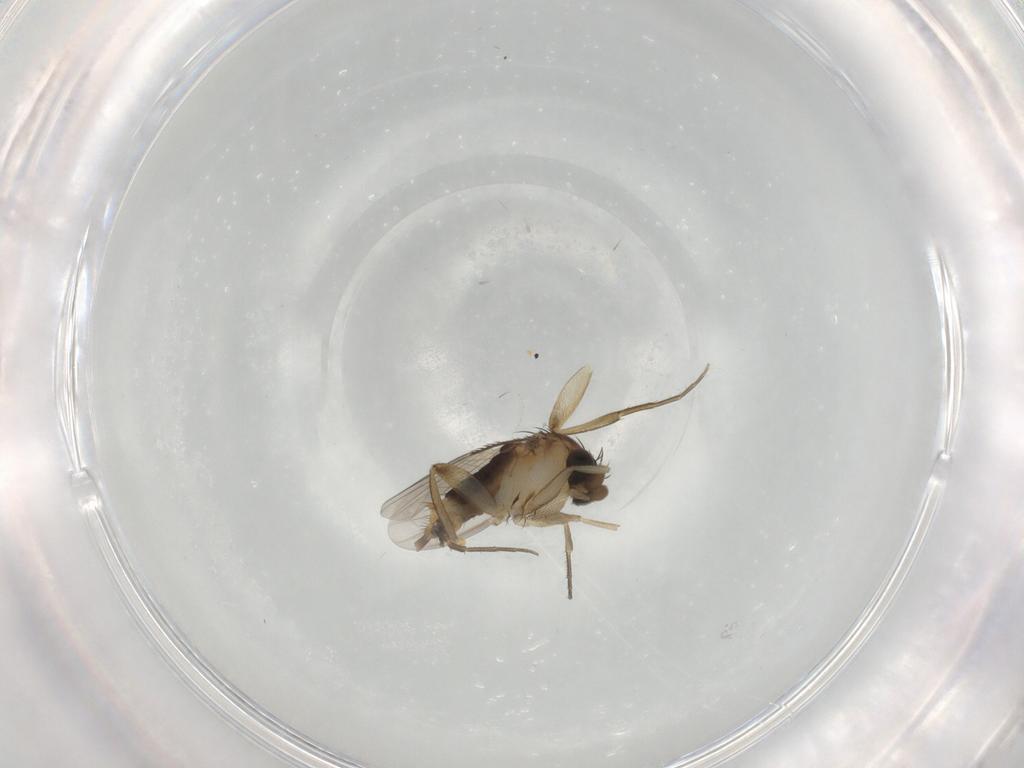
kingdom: Animalia
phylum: Arthropoda
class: Insecta
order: Diptera
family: Phoridae
